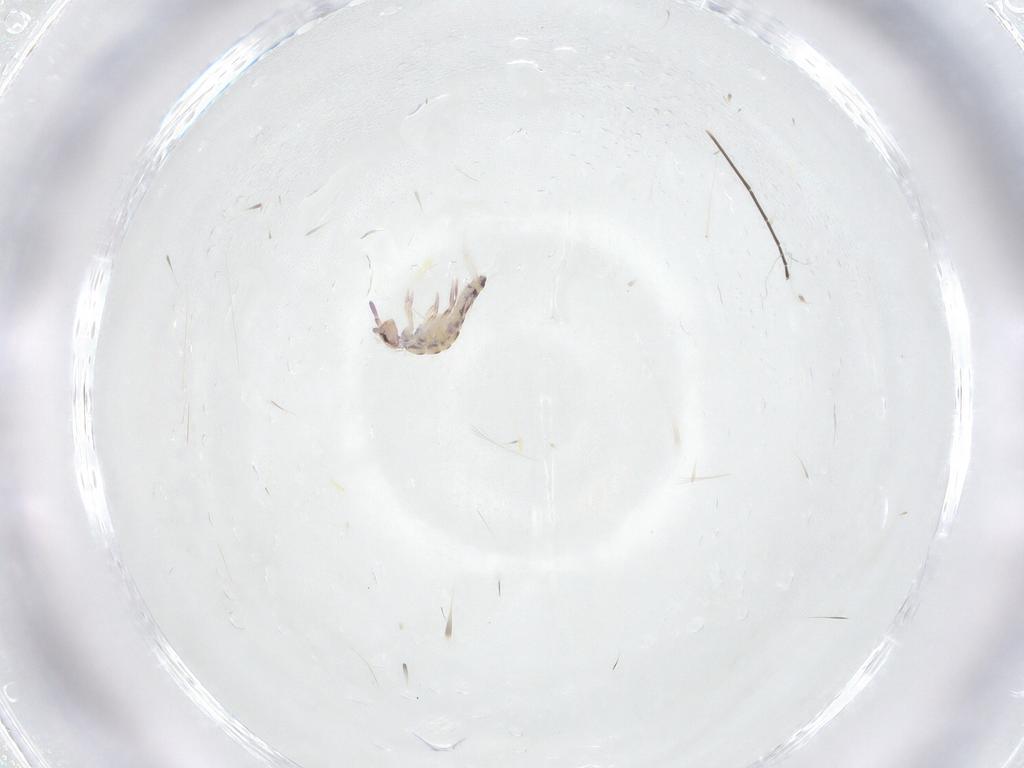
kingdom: Animalia
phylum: Arthropoda
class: Collembola
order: Entomobryomorpha
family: Entomobryidae
